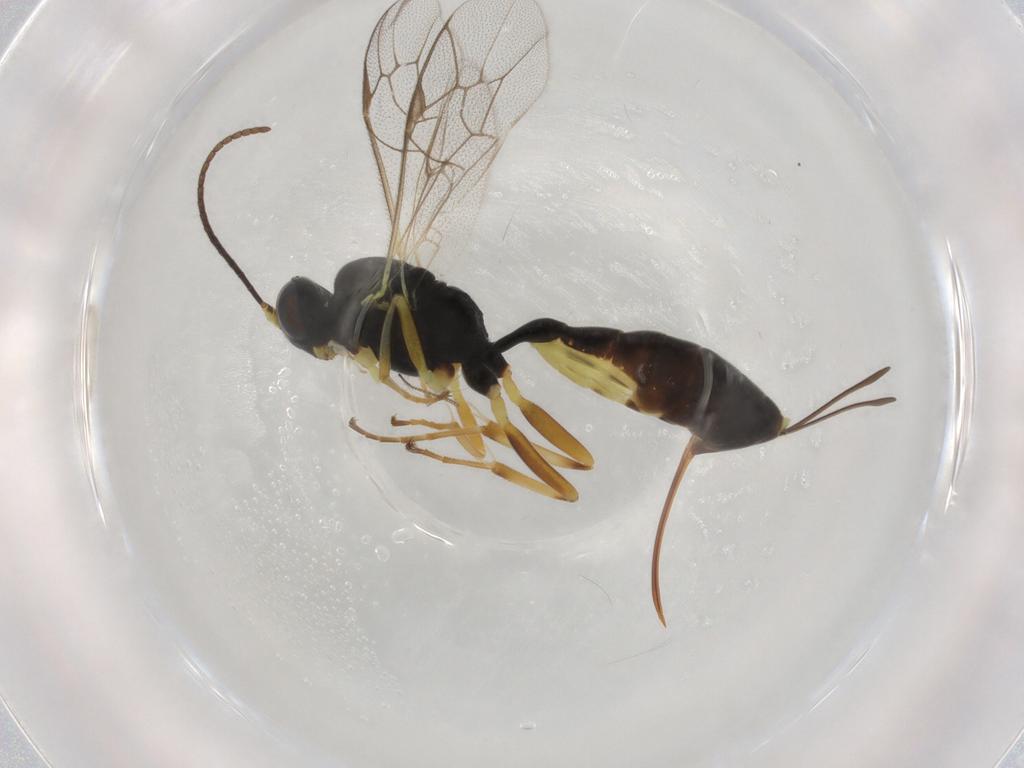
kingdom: Animalia
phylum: Arthropoda
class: Insecta
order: Hymenoptera
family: Ichneumonidae
